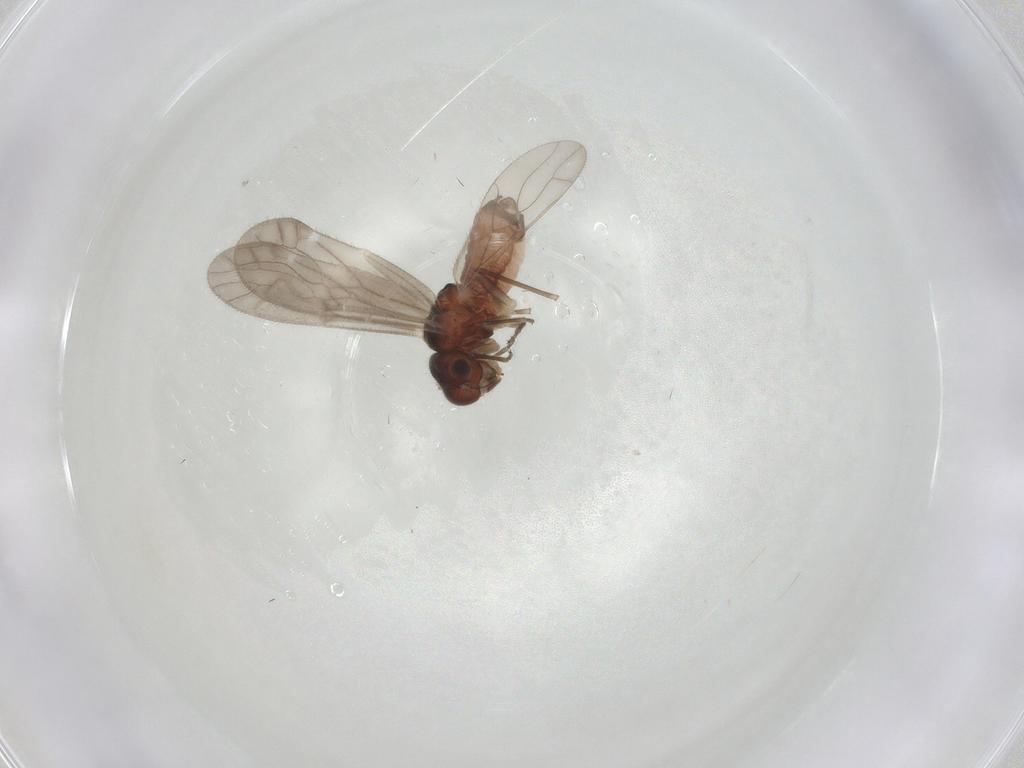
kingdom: Animalia
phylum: Arthropoda
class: Insecta
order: Psocodea
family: Caeciliusidae
